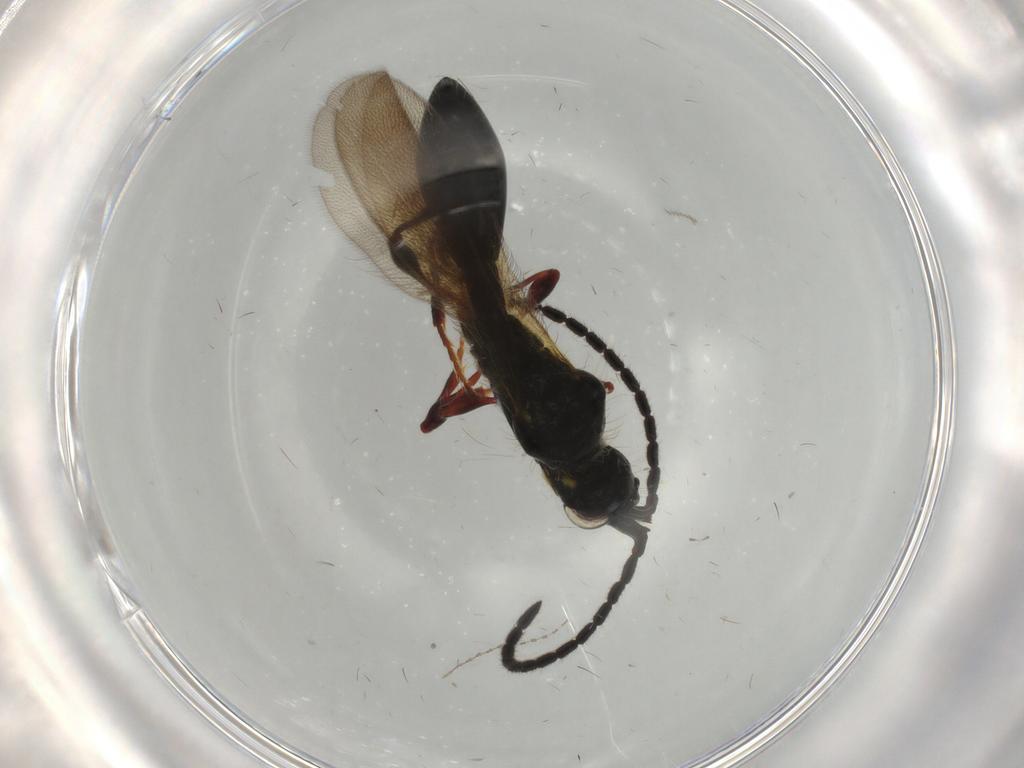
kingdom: Animalia
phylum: Arthropoda
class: Insecta
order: Hymenoptera
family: Diapriidae
